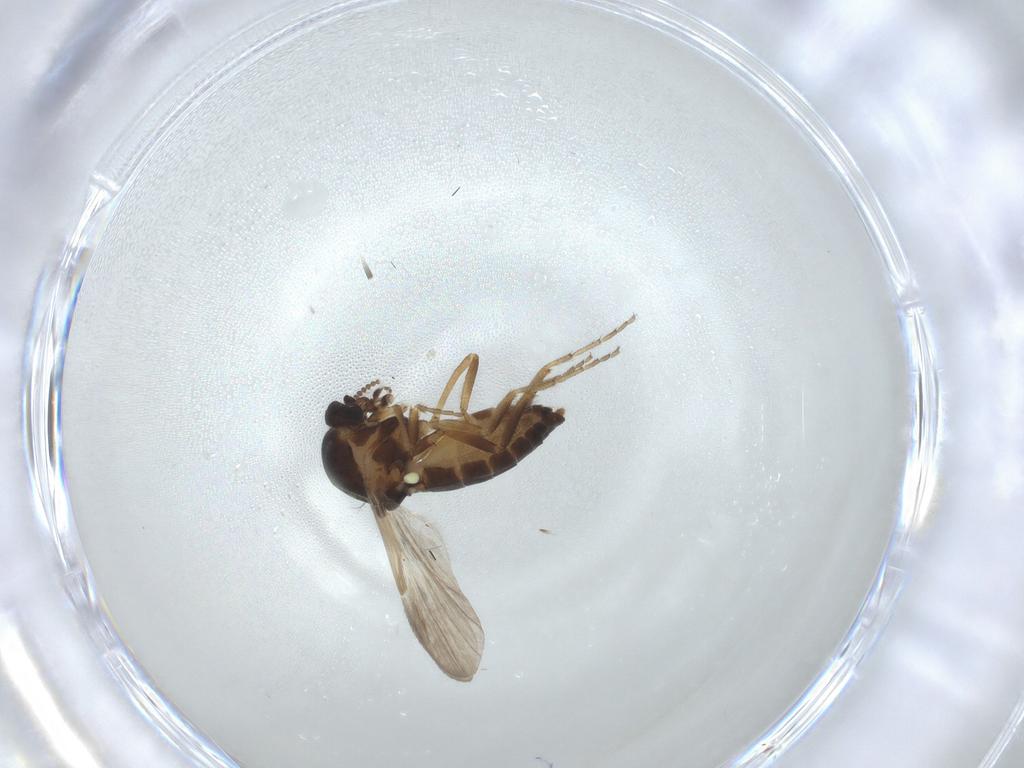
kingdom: Animalia
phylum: Arthropoda
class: Insecta
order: Diptera
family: Ceratopogonidae
